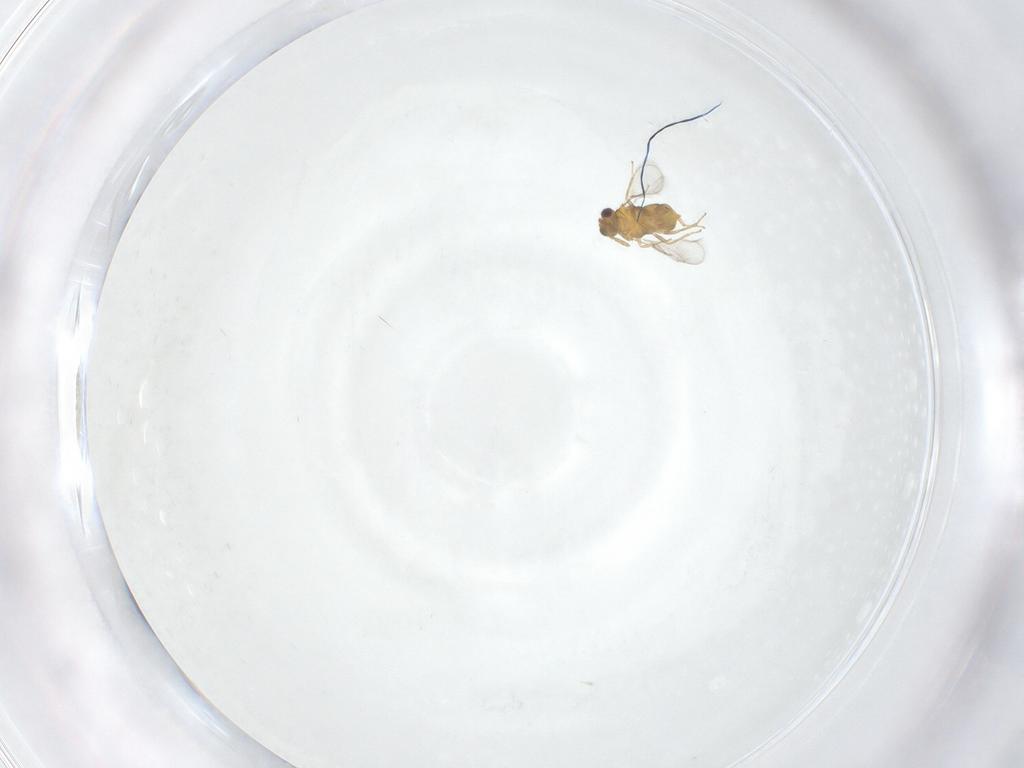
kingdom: Animalia
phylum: Arthropoda
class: Insecta
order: Hymenoptera
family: Aphelinidae
